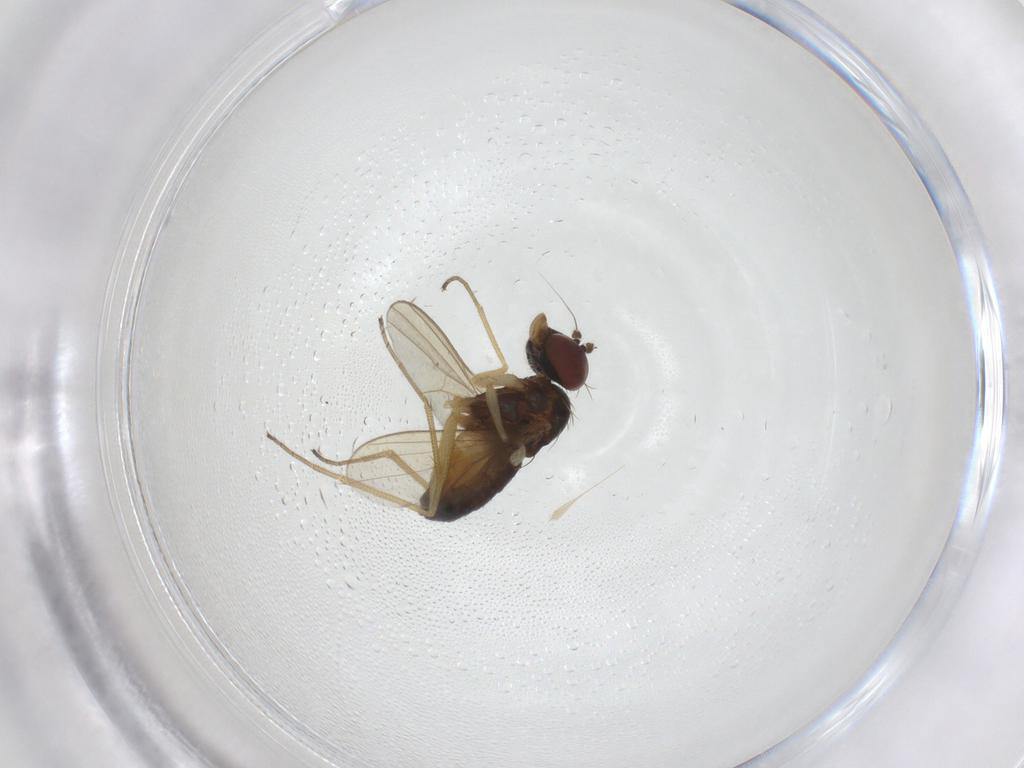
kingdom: Animalia
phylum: Arthropoda
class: Insecta
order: Diptera
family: Dolichopodidae
